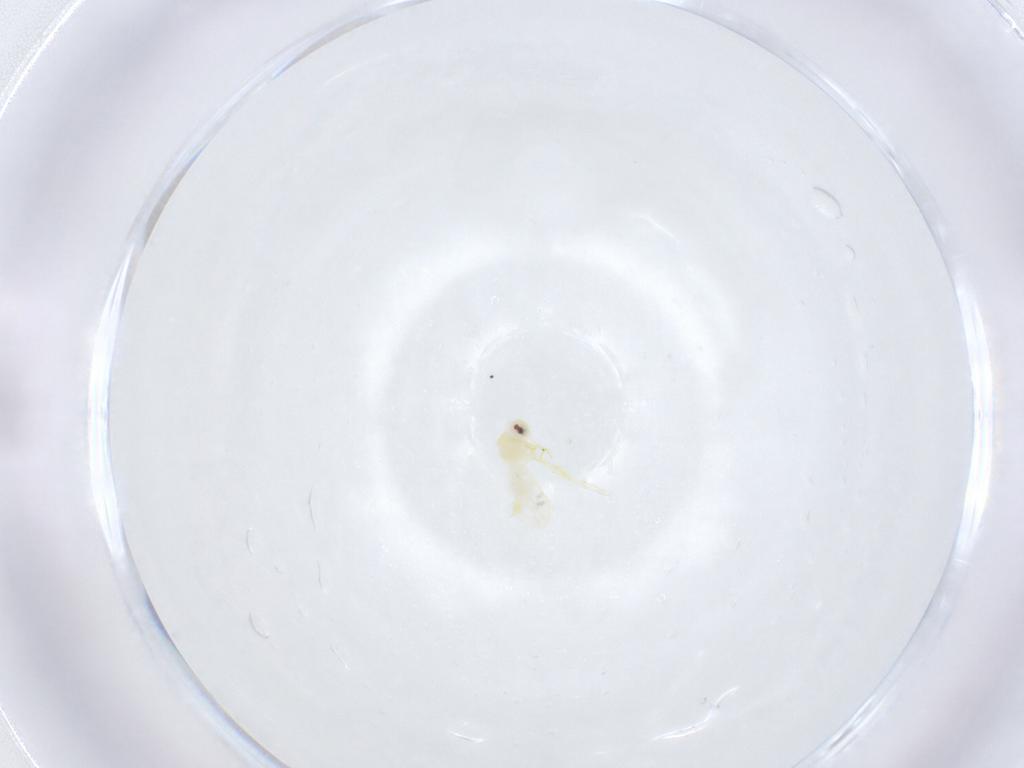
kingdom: Animalia
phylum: Arthropoda
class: Insecta
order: Hemiptera
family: Aleyrodidae
